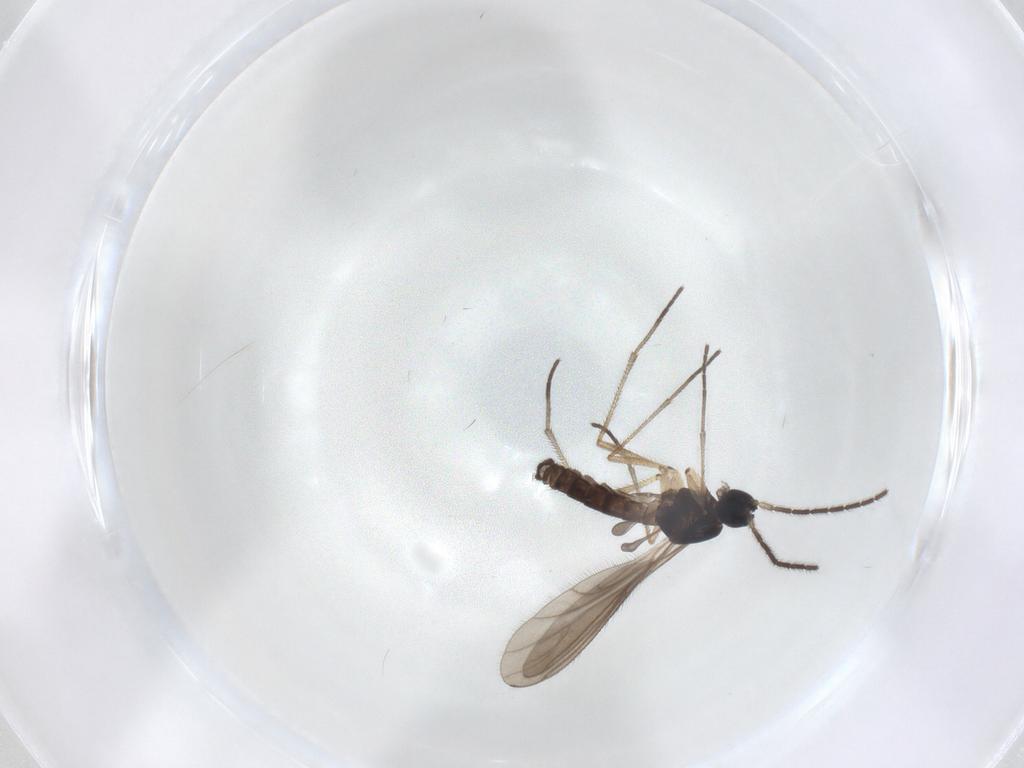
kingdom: Animalia
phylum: Arthropoda
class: Insecta
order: Diptera
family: Sciaridae
